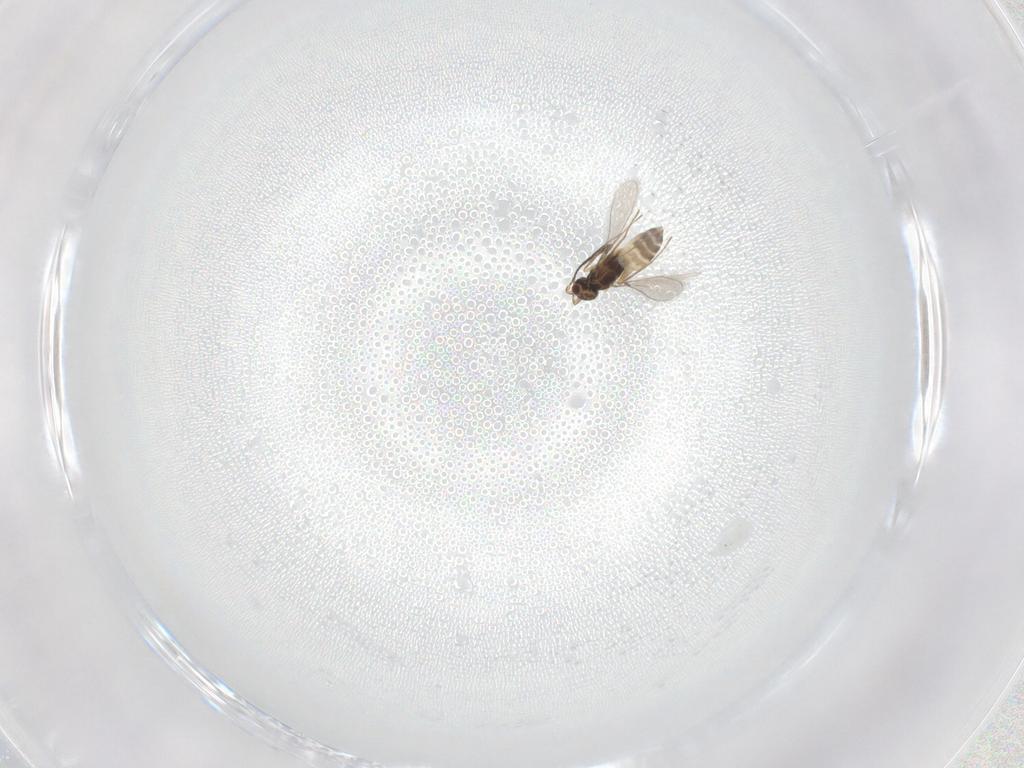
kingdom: Animalia
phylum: Arthropoda
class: Insecta
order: Hymenoptera
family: Mymaridae
